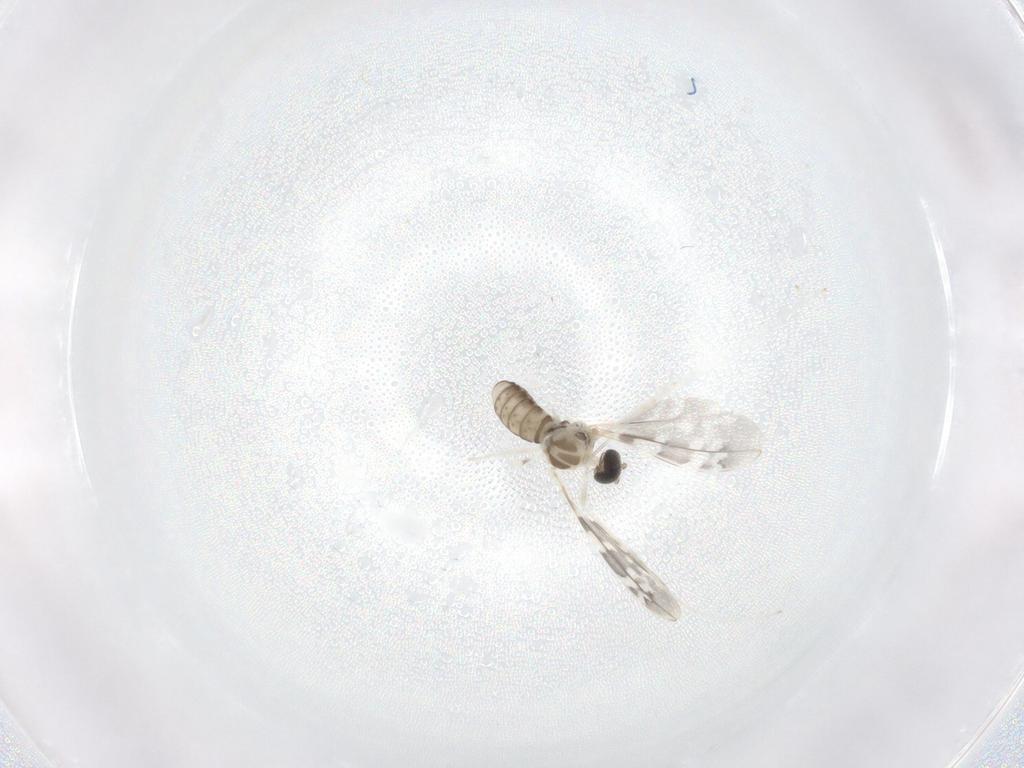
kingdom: Animalia
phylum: Arthropoda
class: Insecta
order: Diptera
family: Cecidomyiidae
